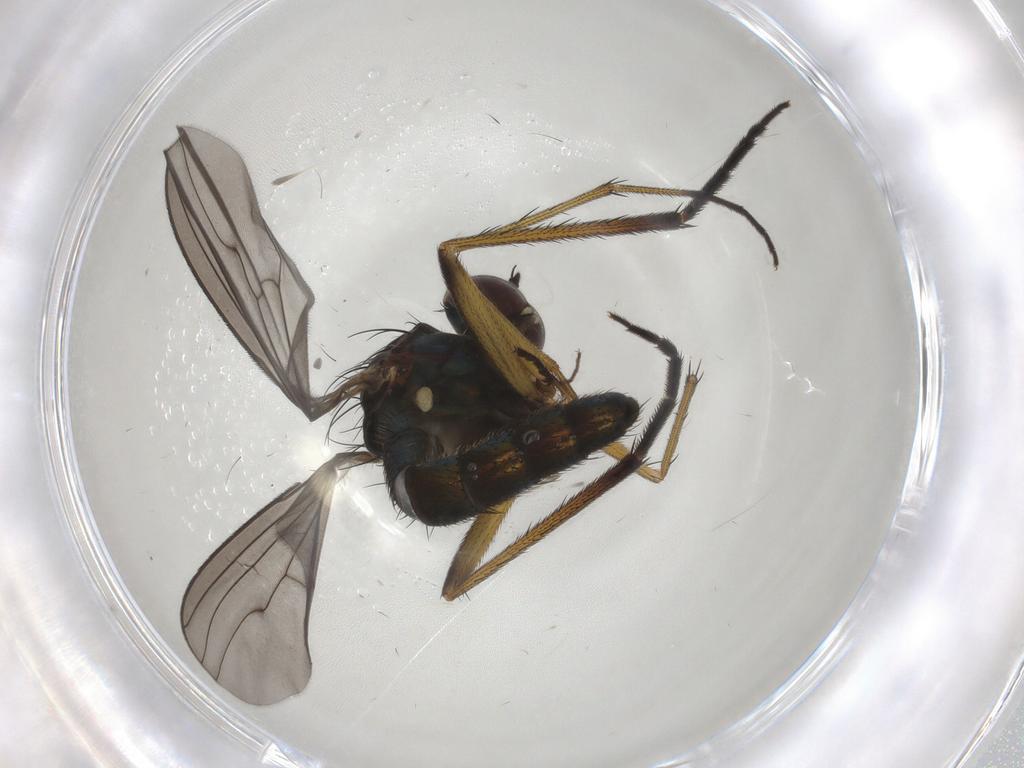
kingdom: Animalia
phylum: Arthropoda
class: Insecta
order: Diptera
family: Dolichopodidae
